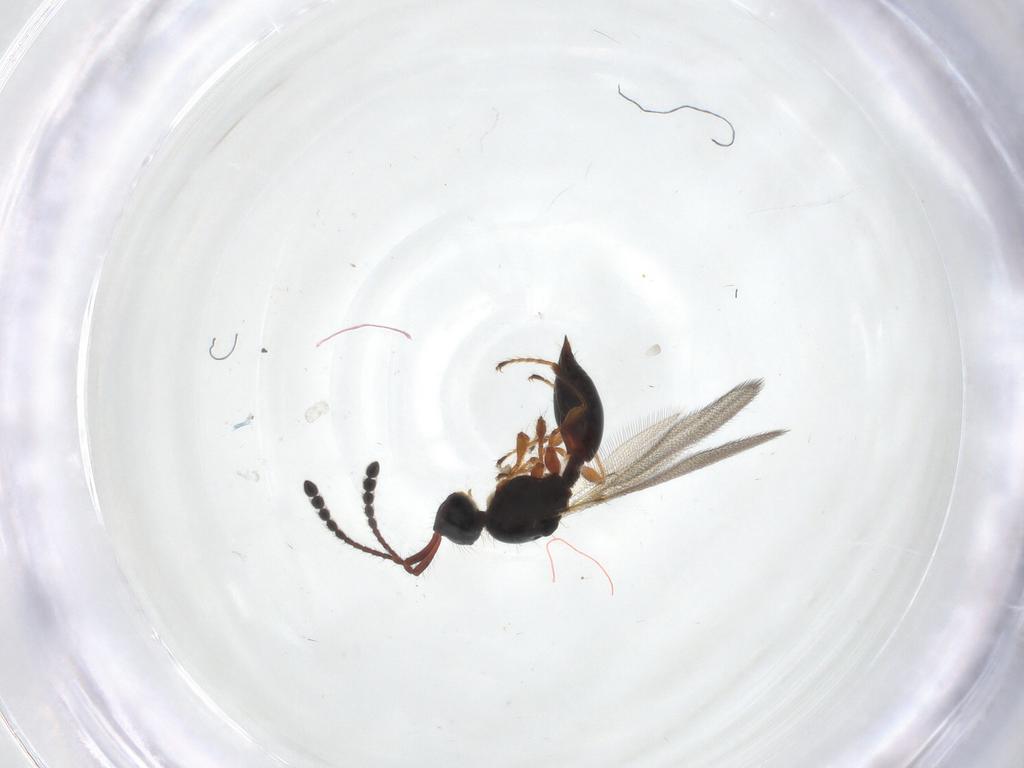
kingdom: Animalia
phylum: Arthropoda
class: Insecta
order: Hymenoptera
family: Diapriidae
